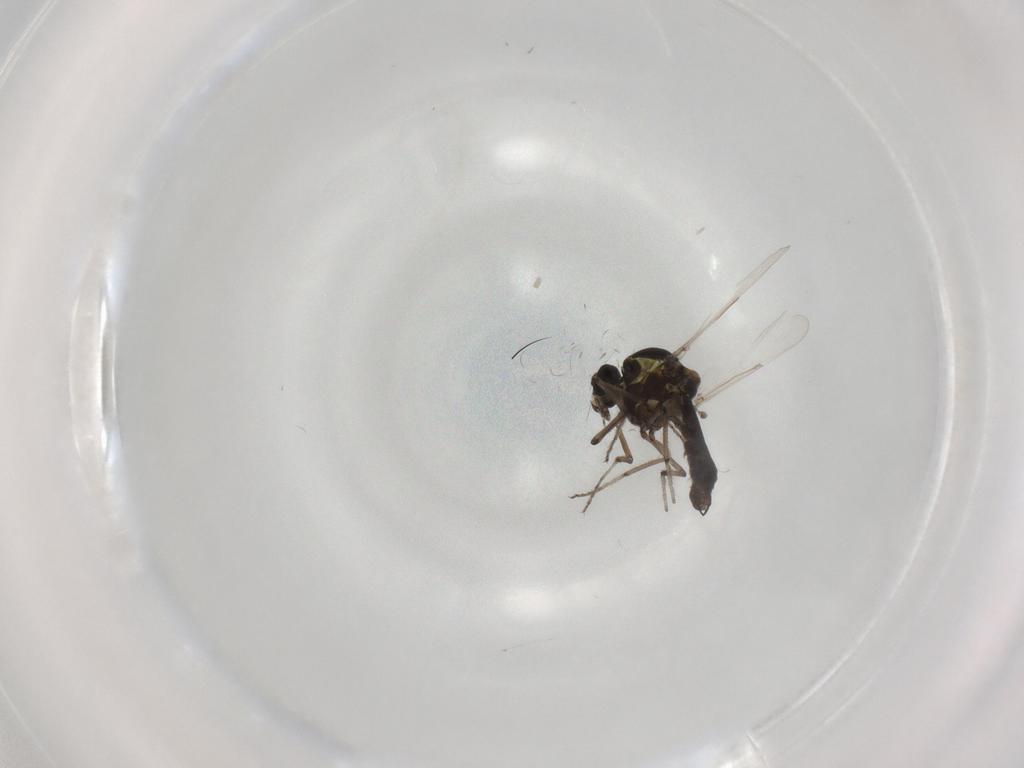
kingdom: Animalia
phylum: Arthropoda
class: Insecta
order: Diptera
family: Ceratopogonidae
